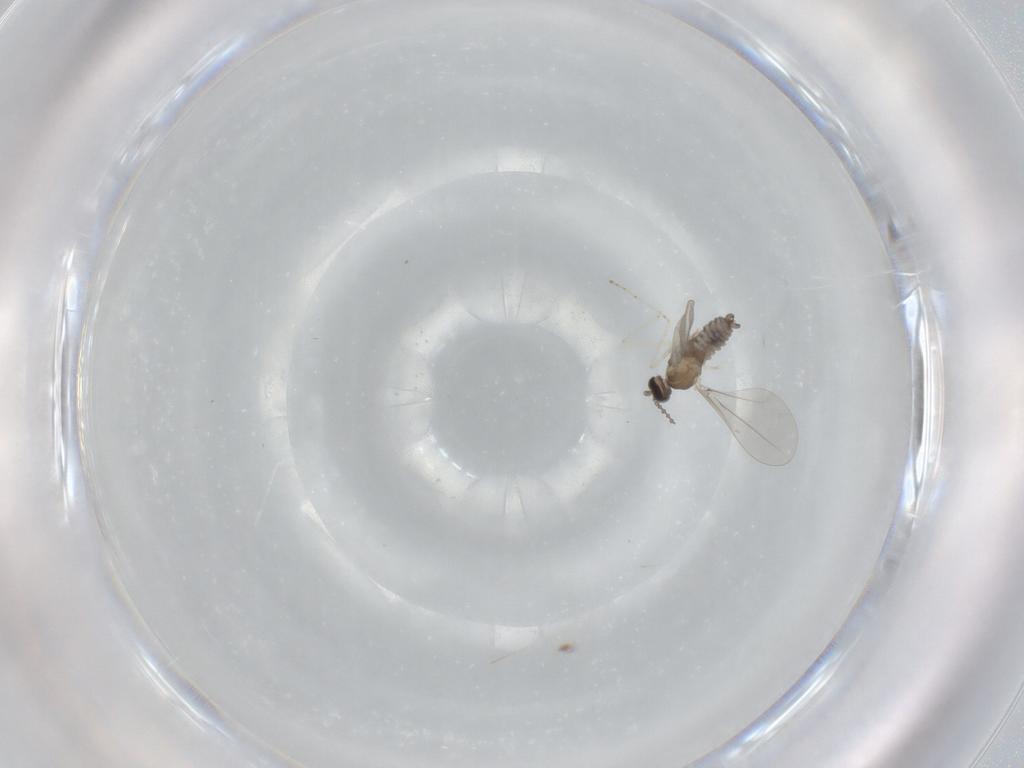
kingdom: Animalia
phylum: Arthropoda
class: Insecta
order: Diptera
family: Cecidomyiidae
